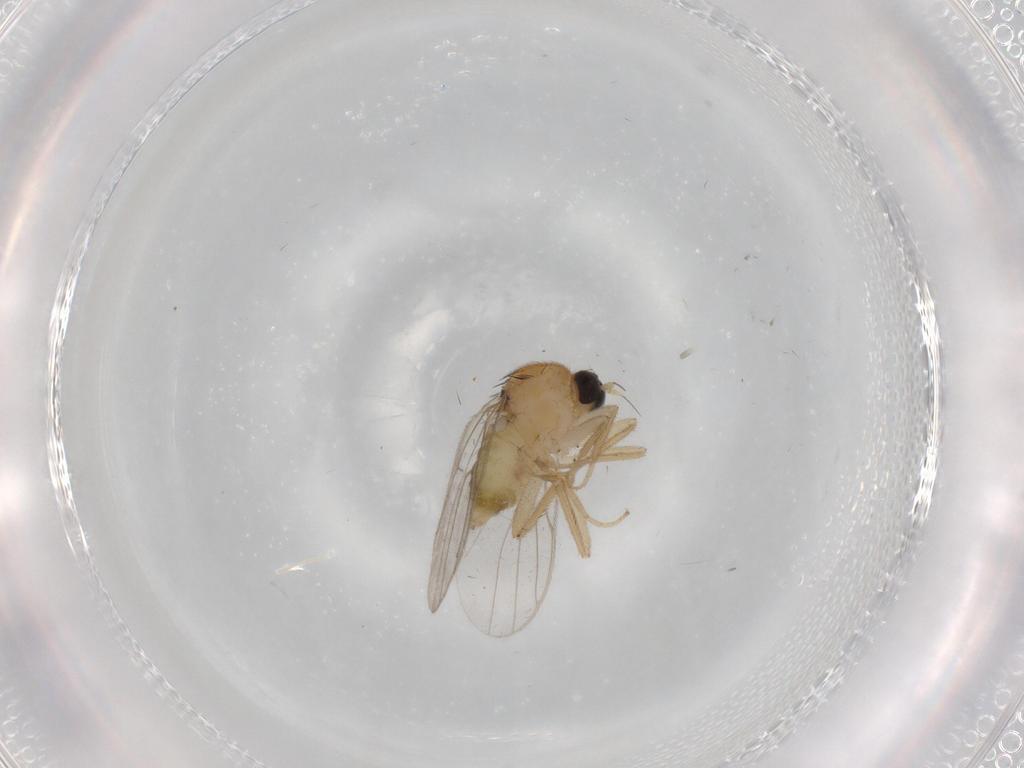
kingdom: Animalia
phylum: Arthropoda
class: Insecta
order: Diptera
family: Hybotidae
